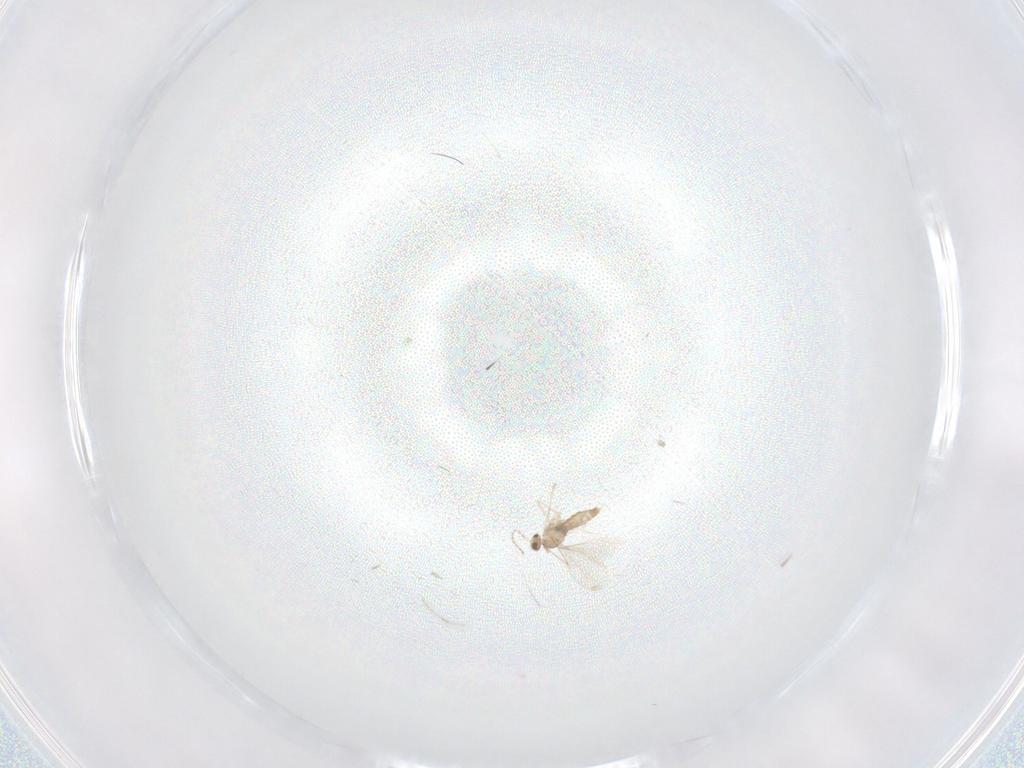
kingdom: Animalia
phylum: Arthropoda
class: Insecta
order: Diptera
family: Cecidomyiidae
